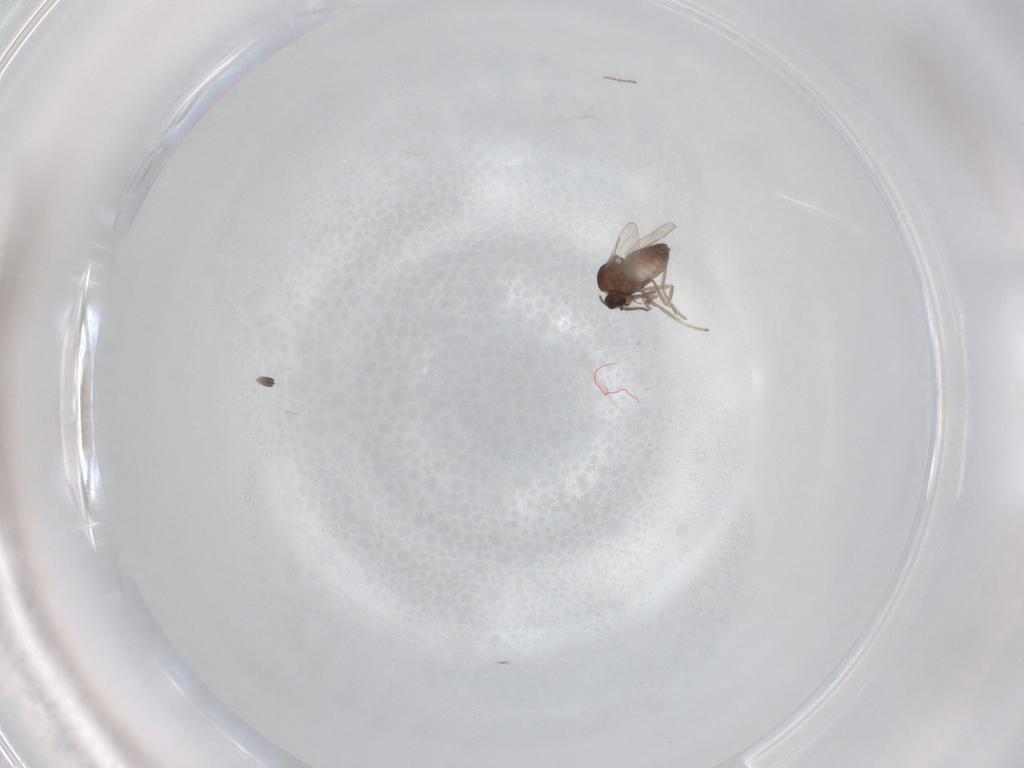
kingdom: Animalia
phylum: Arthropoda
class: Insecta
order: Diptera
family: Ceratopogonidae
